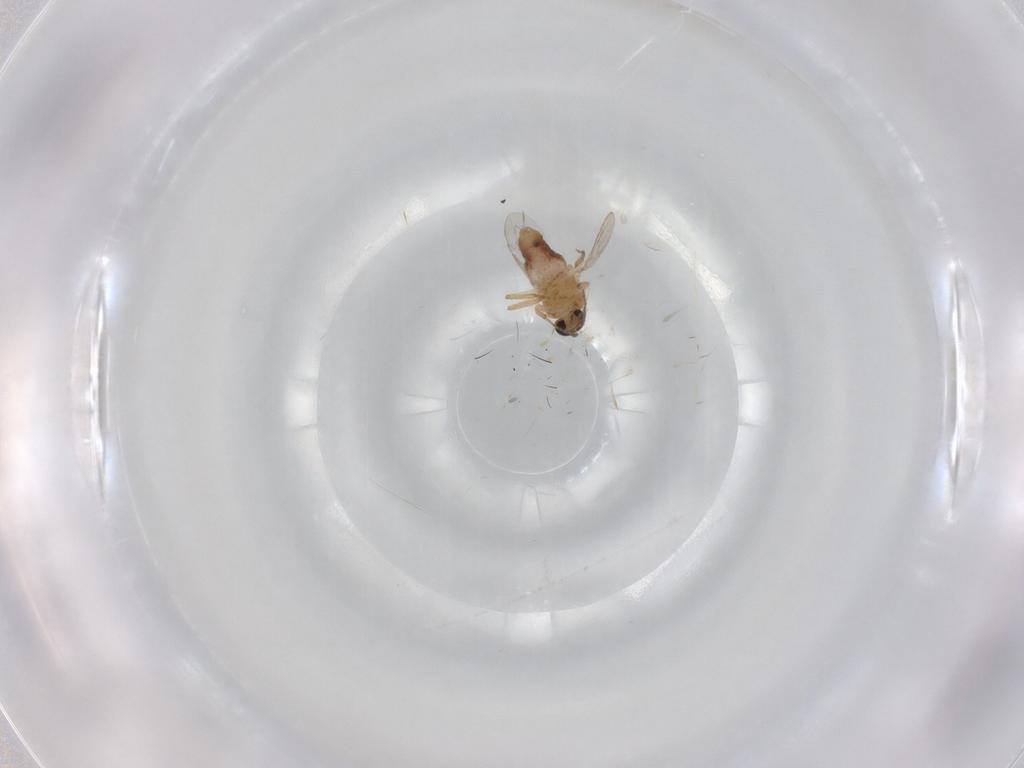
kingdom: Animalia
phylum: Arthropoda
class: Insecta
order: Diptera
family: Ceratopogonidae
